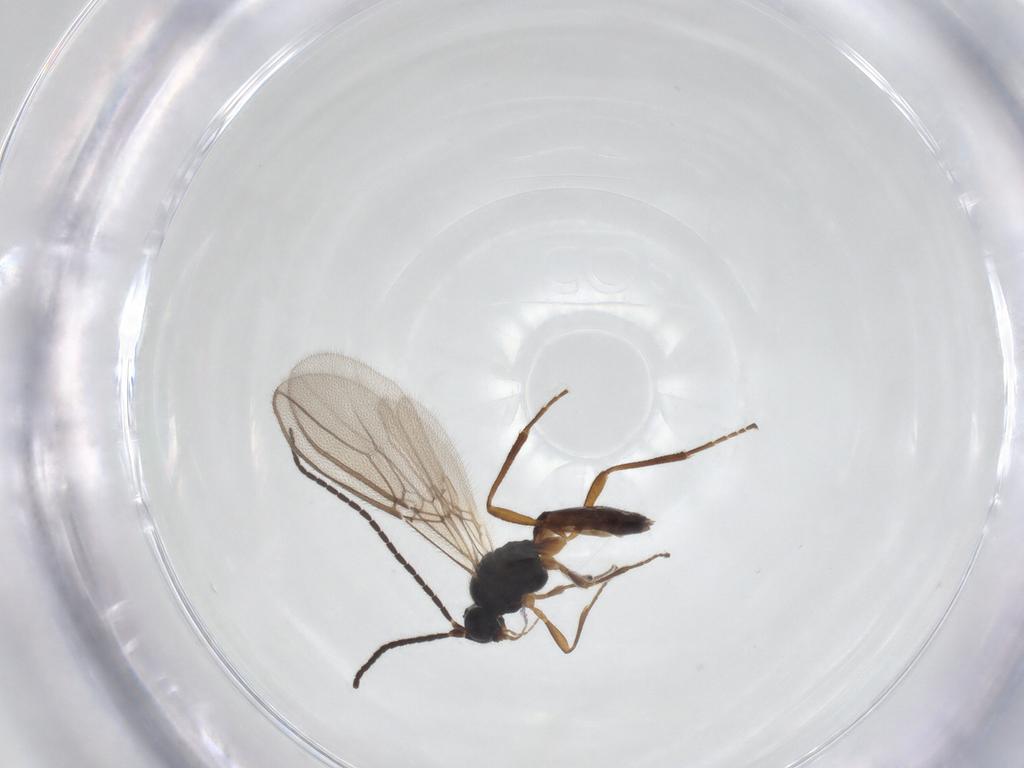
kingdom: Animalia
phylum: Arthropoda
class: Insecta
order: Hymenoptera
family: Braconidae
